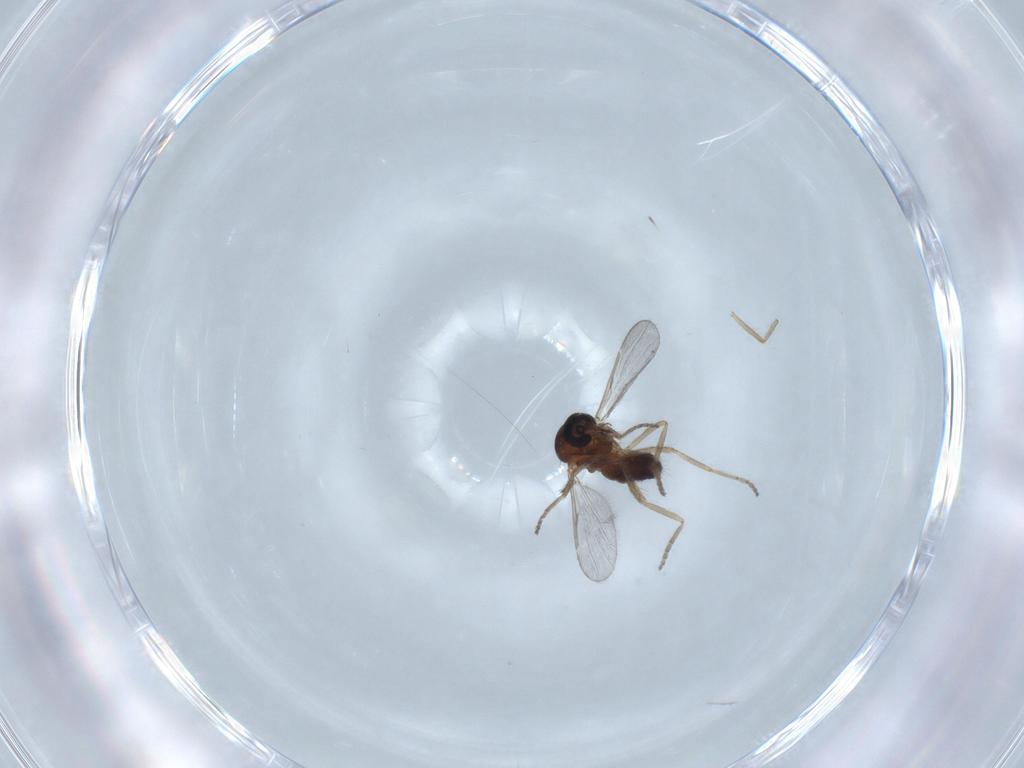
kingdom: Animalia
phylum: Arthropoda
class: Insecta
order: Diptera
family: Ceratopogonidae
